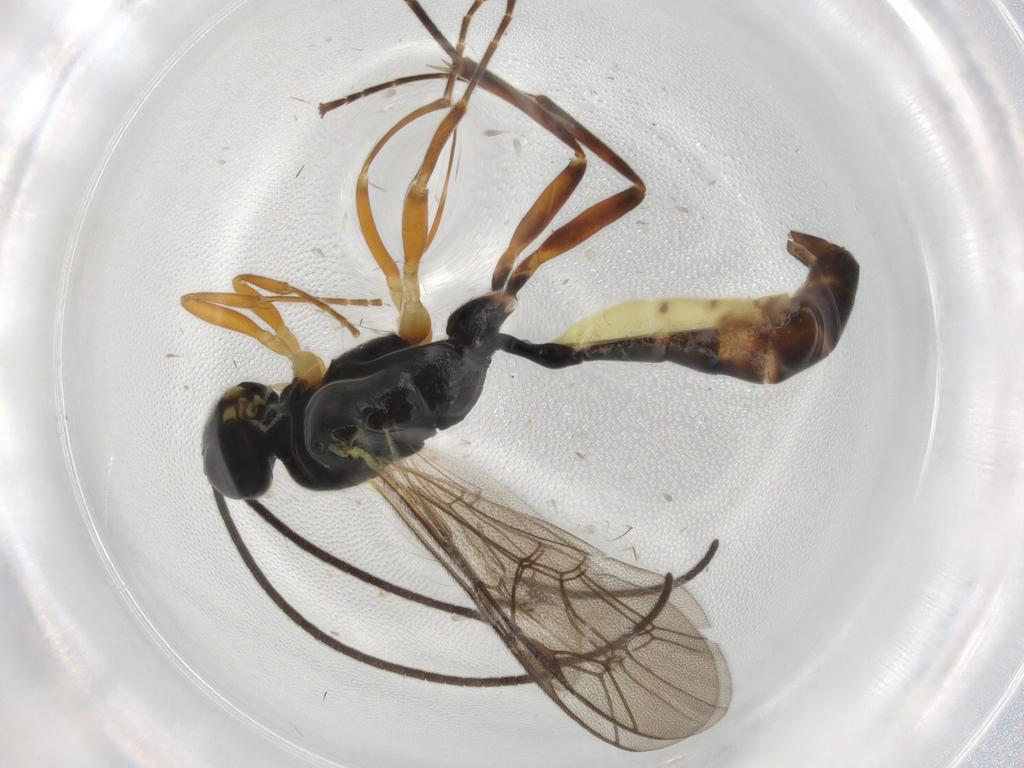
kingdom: Animalia
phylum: Arthropoda
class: Insecta
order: Hymenoptera
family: Ichneumonidae
